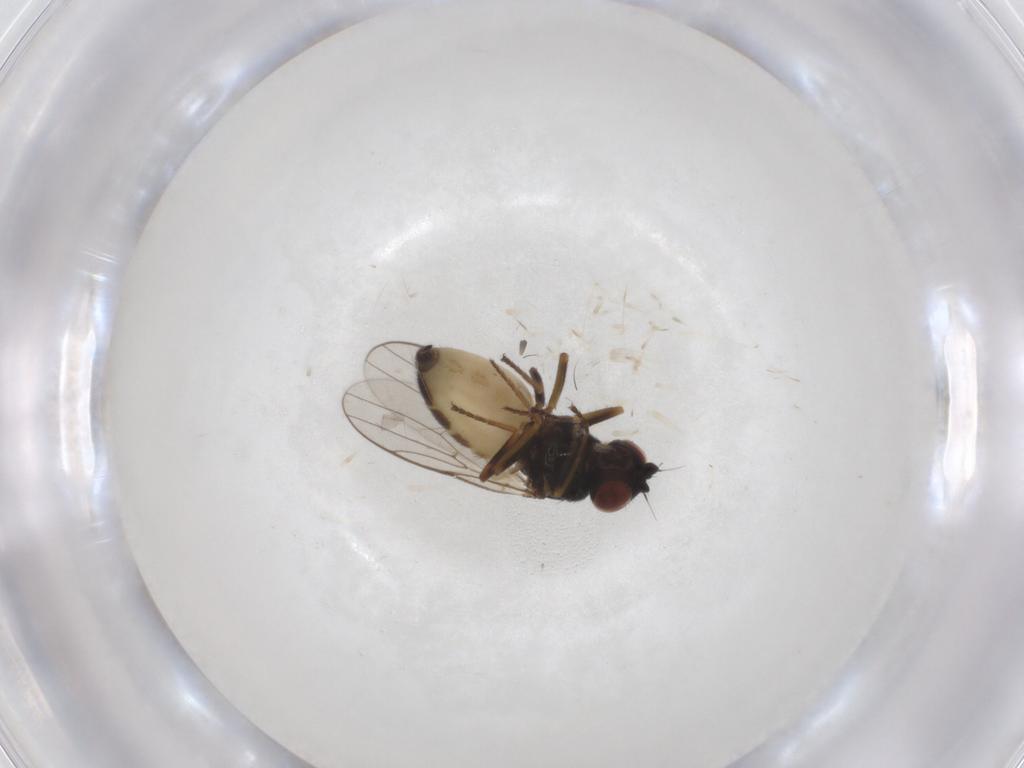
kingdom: Animalia
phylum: Arthropoda
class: Insecta
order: Diptera
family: Chloropidae
